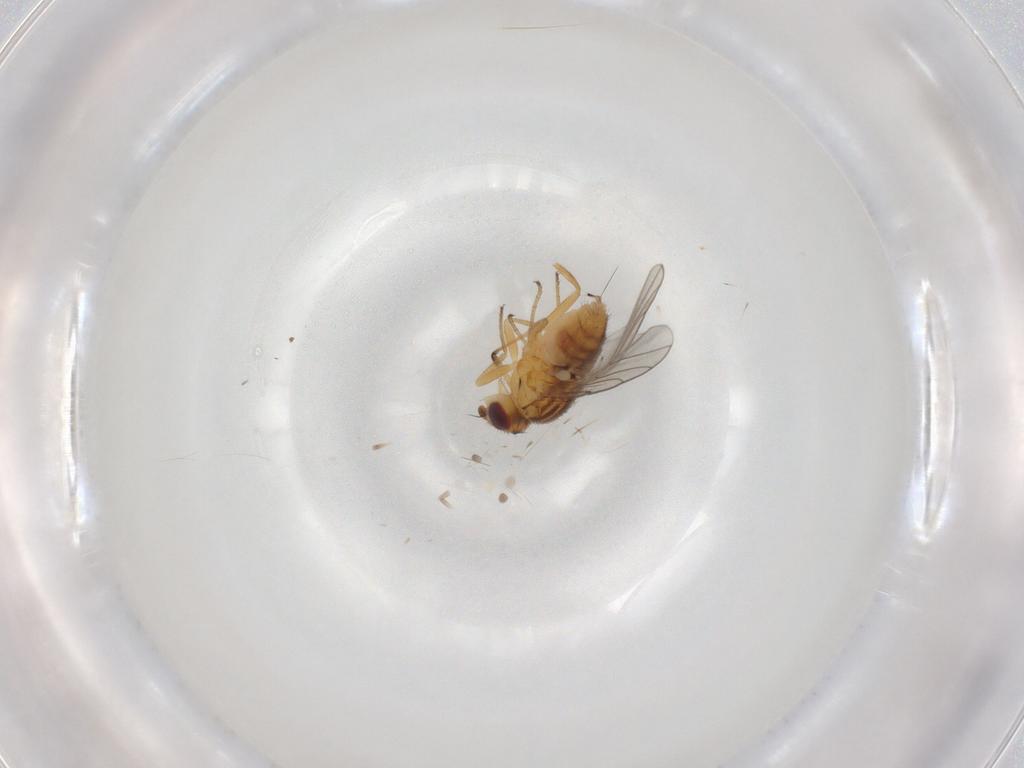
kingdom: Animalia
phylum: Arthropoda
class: Insecta
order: Diptera
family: Chloropidae
